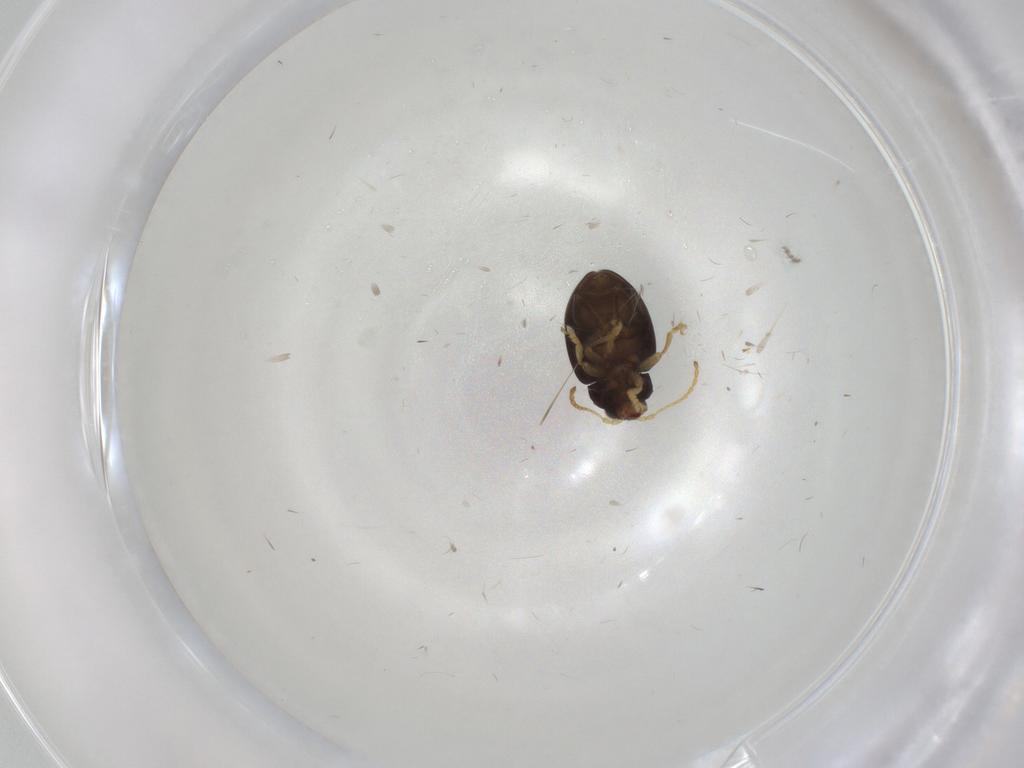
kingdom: Animalia
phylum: Arthropoda
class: Insecta
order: Coleoptera
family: Chrysomelidae
